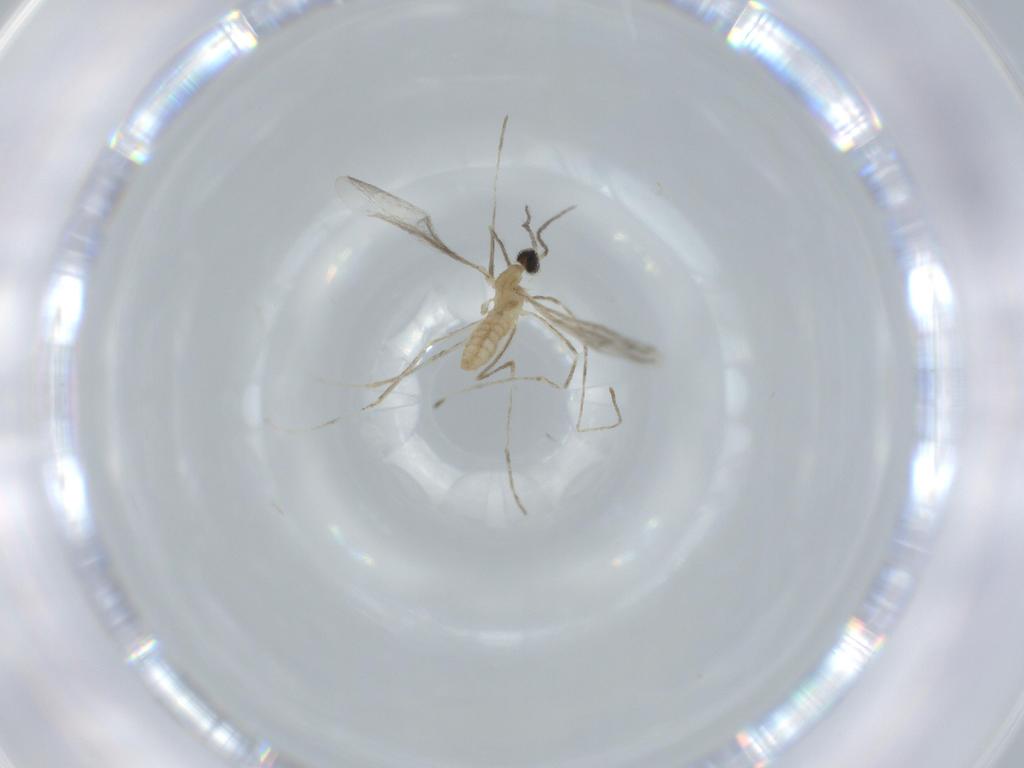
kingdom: Animalia
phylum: Arthropoda
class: Insecta
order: Diptera
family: Cecidomyiidae
